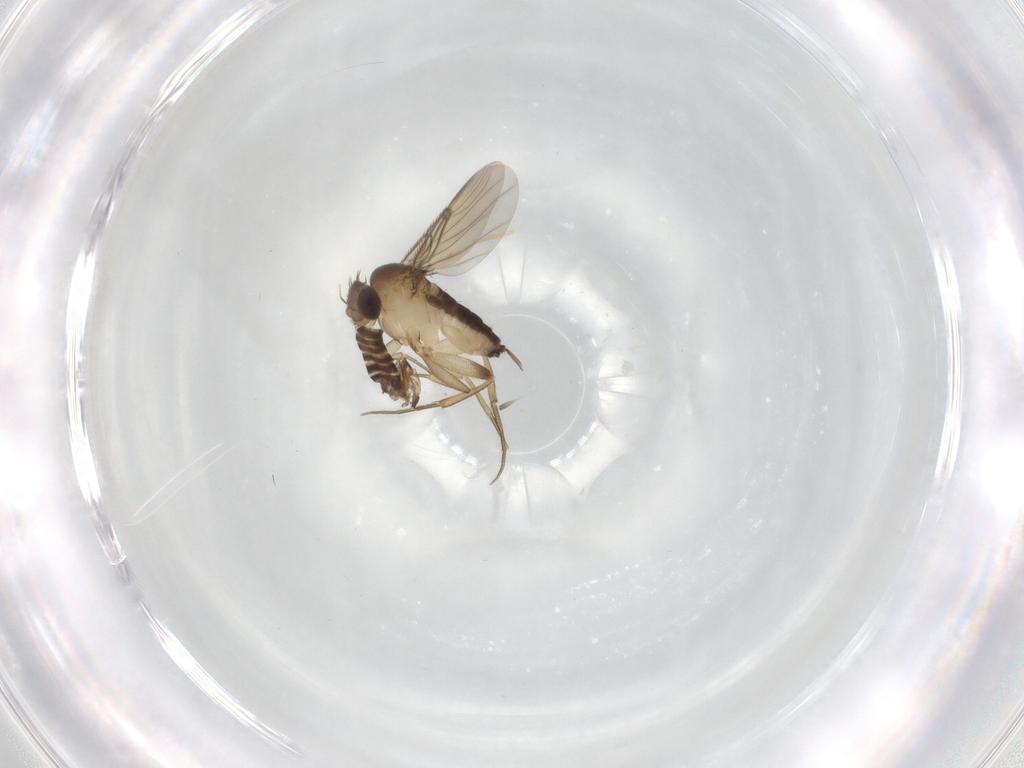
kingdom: Animalia
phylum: Arthropoda
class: Insecta
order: Diptera
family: Phoridae
